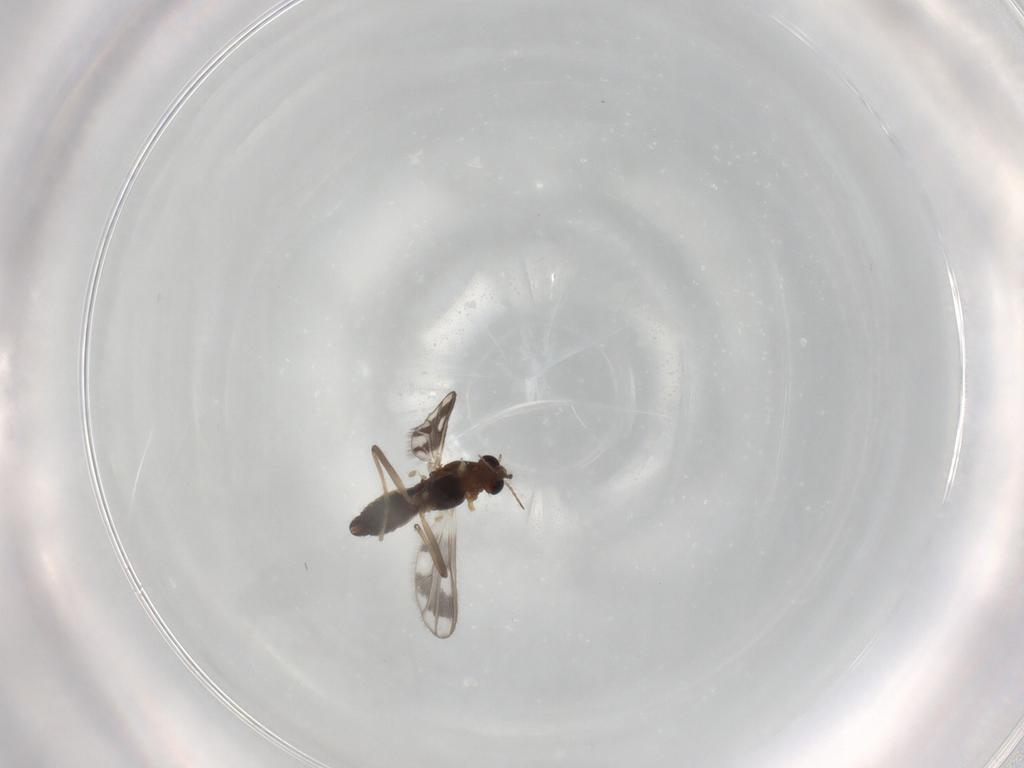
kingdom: Animalia
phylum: Arthropoda
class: Insecta
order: Diptera
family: Chironomidae
